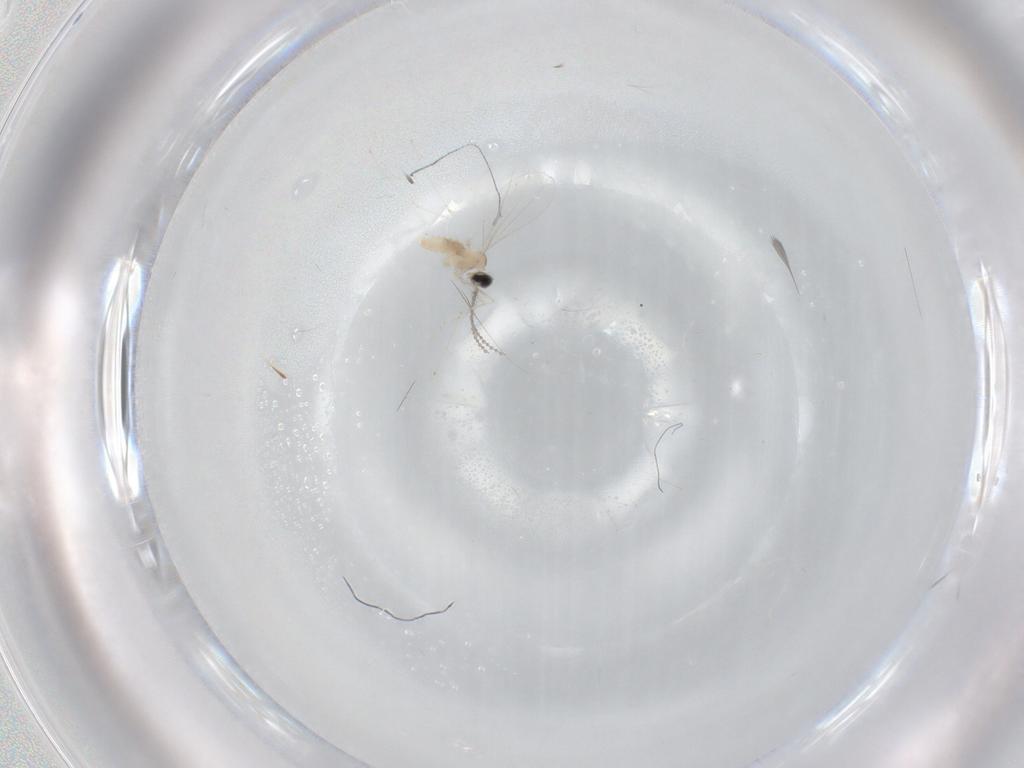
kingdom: Animalia
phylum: Arthropoda
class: Insecta
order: Diptera
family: Cecidomyiidae
